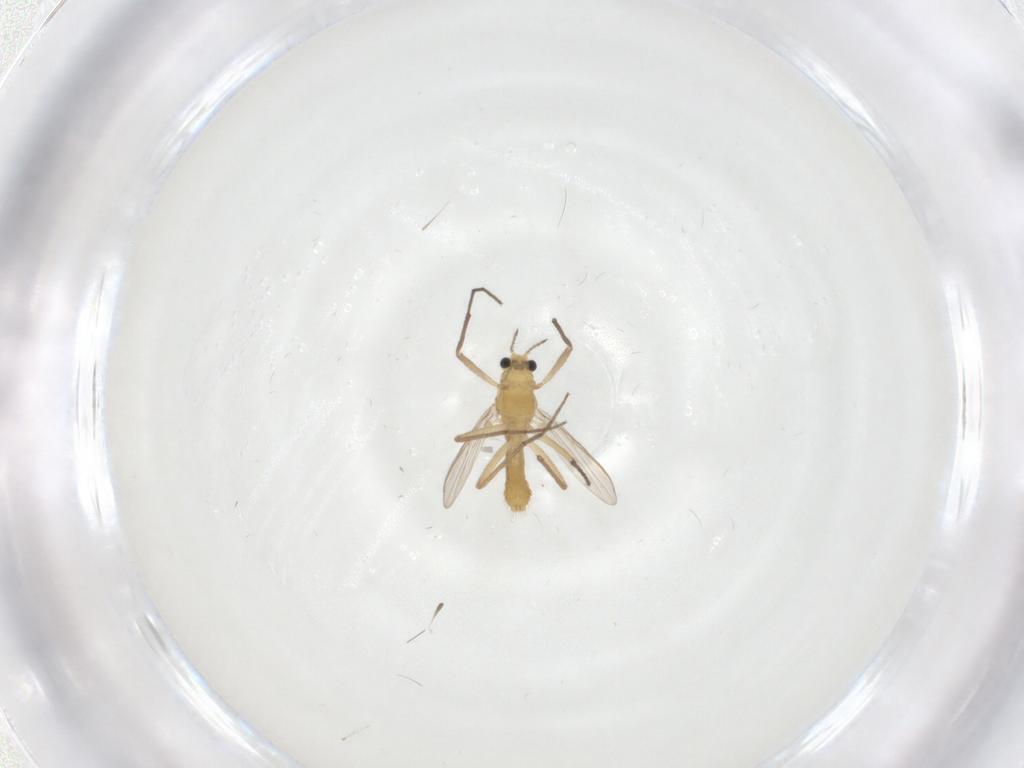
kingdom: Animalia
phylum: Arthropoda
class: Insecta
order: Diptera
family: Chironomidae
